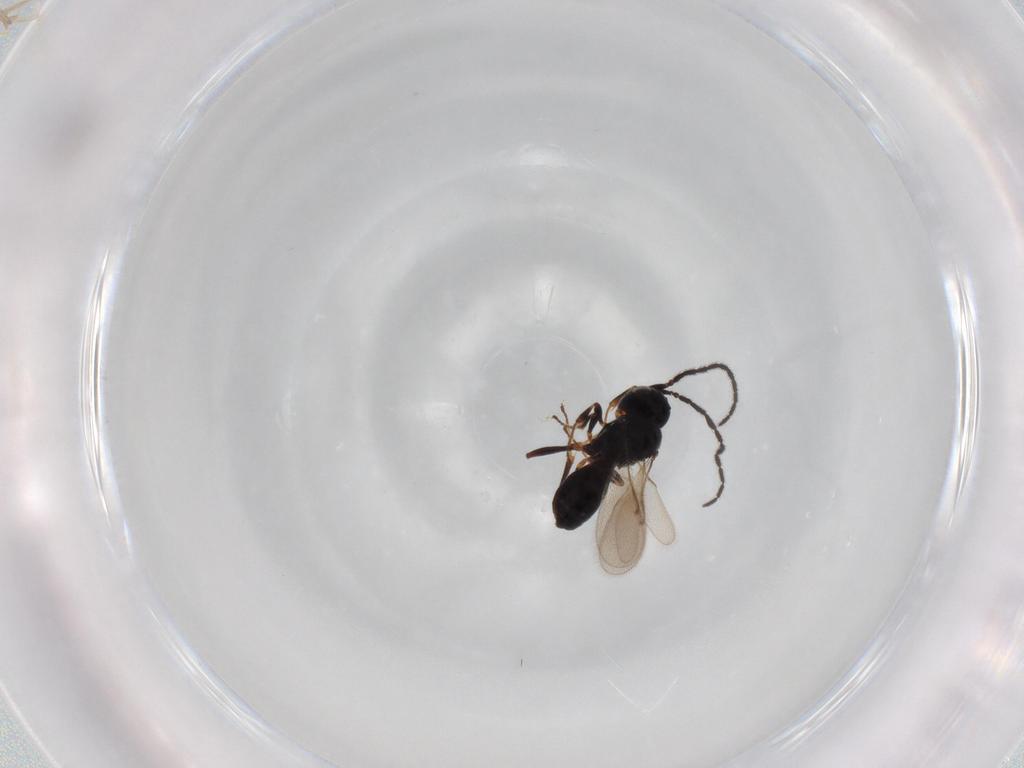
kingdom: Animalia
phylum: Arthropoda
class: Insecta
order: Hymenoptera
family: Scelionidae
